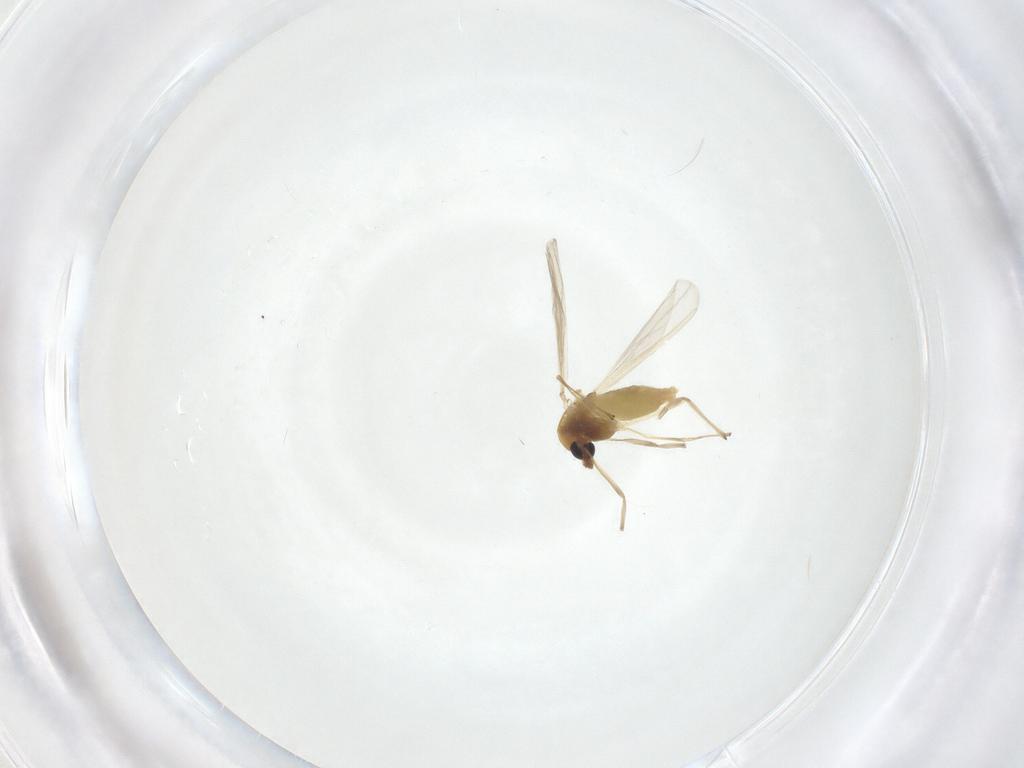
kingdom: Animalia
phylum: Arthropoda
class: Insecta
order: Diptera
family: Chironomidae
